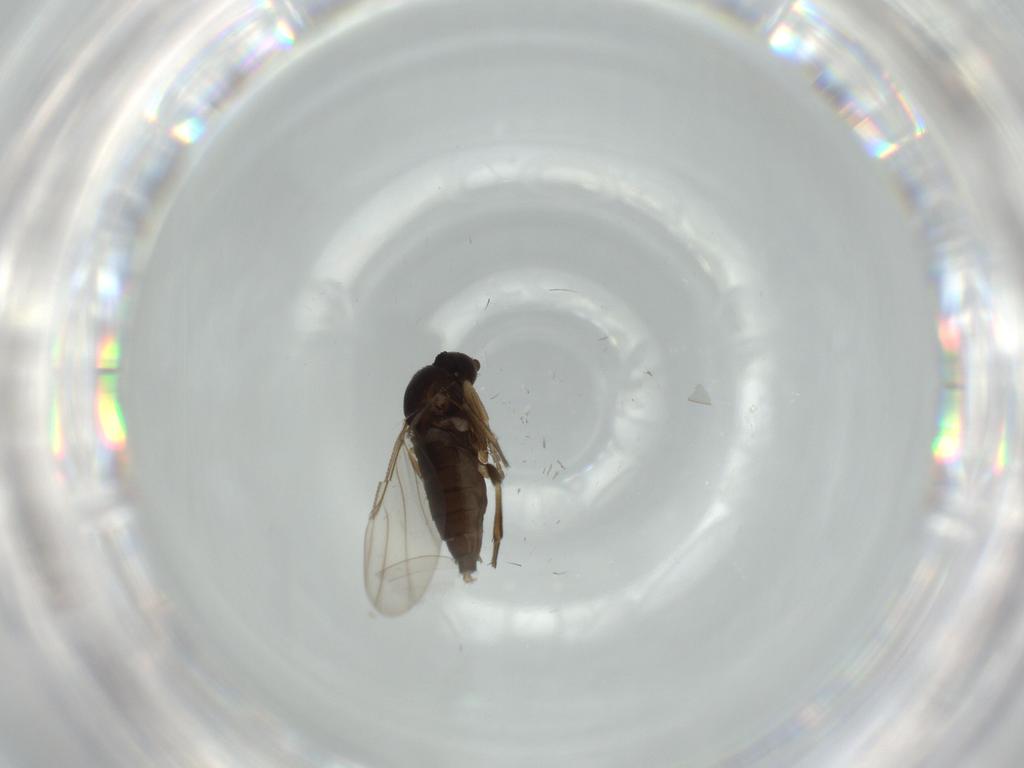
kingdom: Animalia
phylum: Arthropoda
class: Insecta
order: Diptera
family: Phoridae
